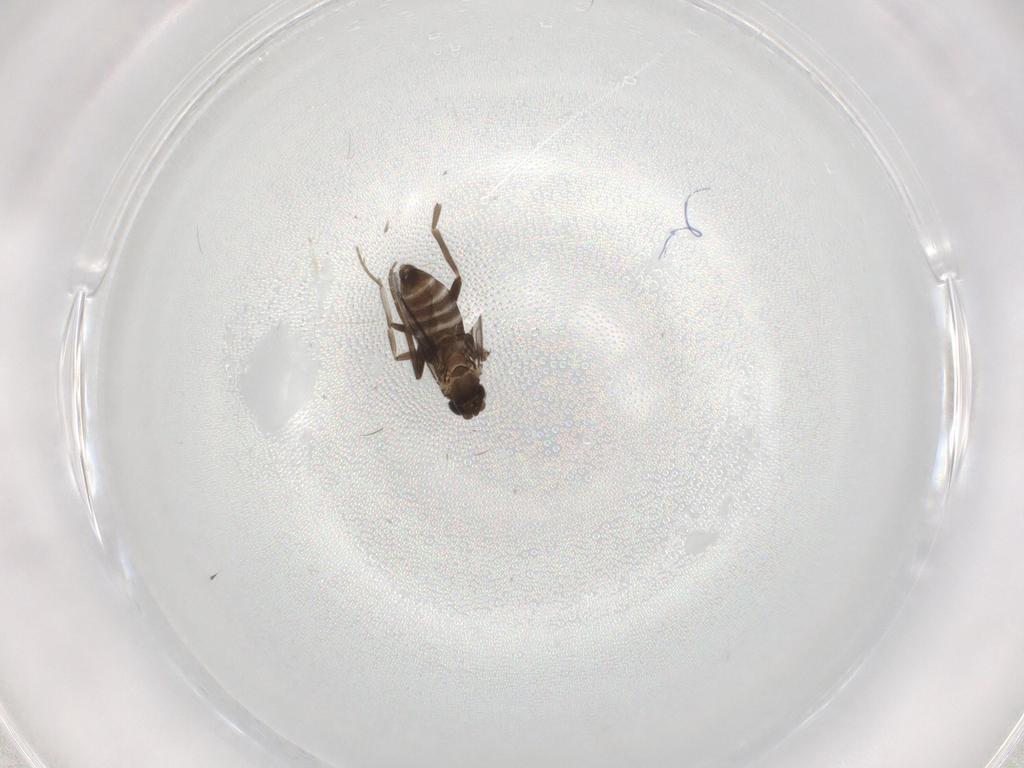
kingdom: Animalia
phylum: Arthropoda
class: Insecta
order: Diptera
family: Phoridae
